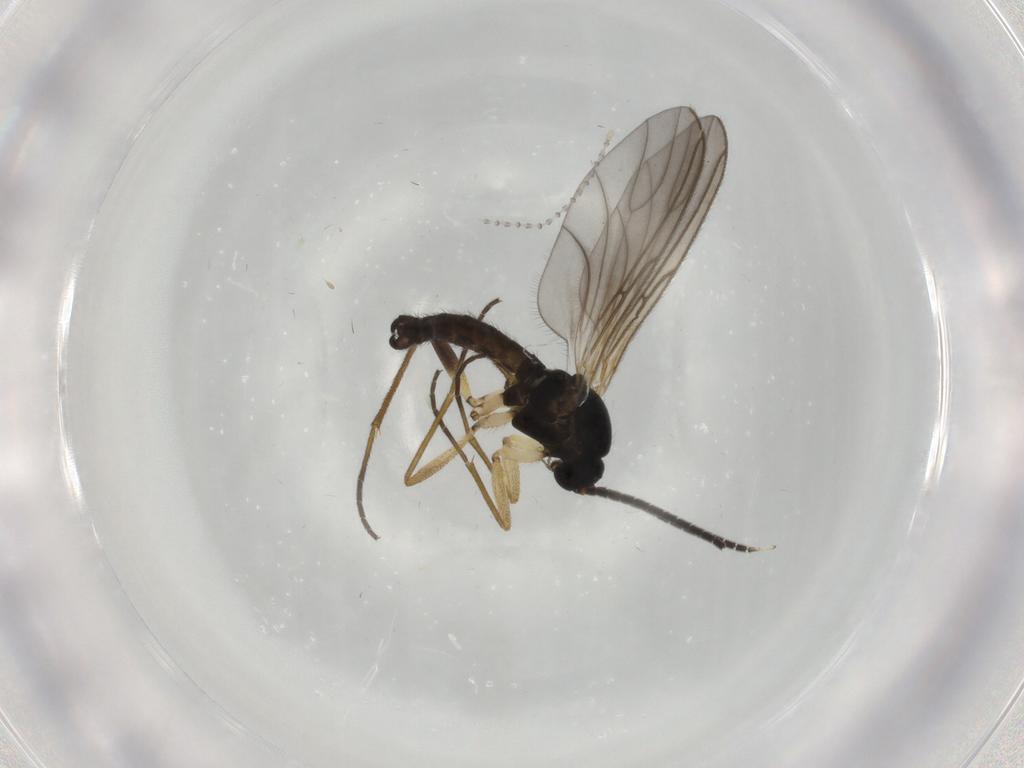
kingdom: Animalia
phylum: Arthropoda
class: Insecta
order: Diptera
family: Sciaridae
